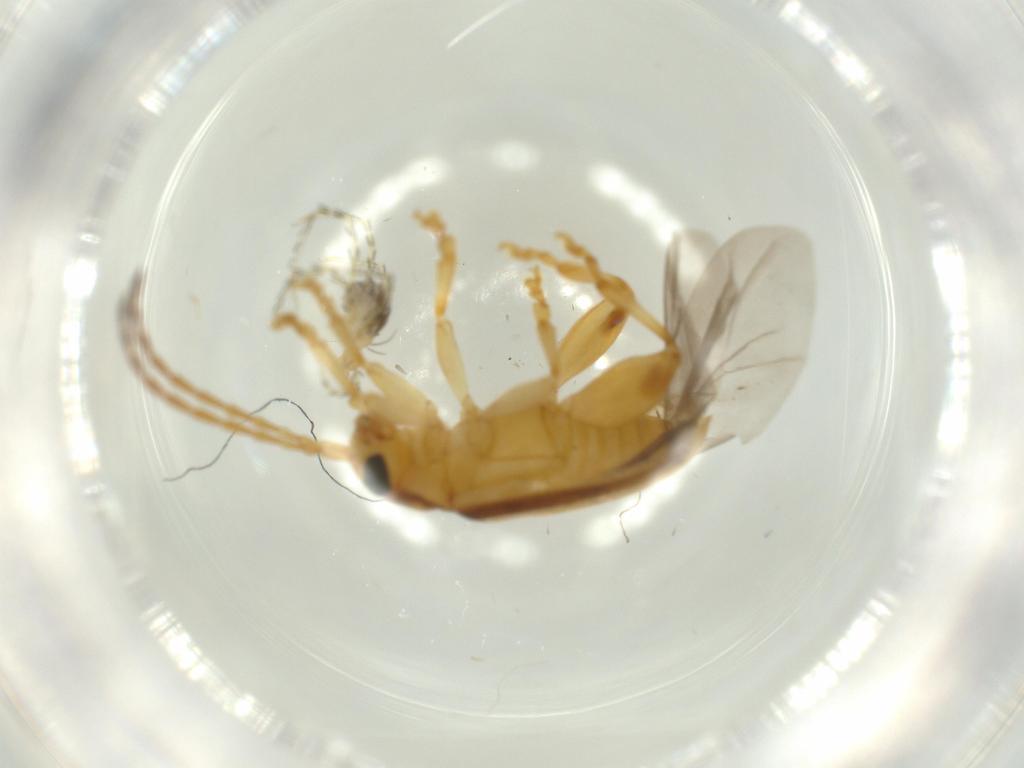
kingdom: Animalia
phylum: Arthropoda
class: Insecta
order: Coleoptera
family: Chrysomelidae
